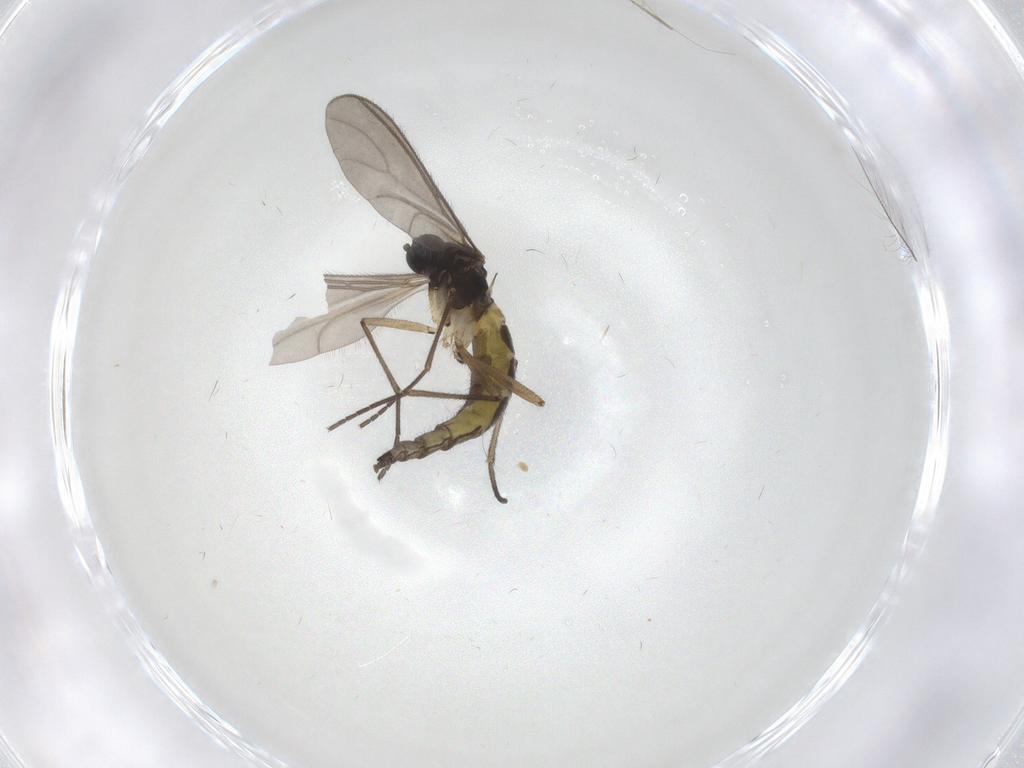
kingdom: Animalia
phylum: Arthropoda
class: Insecta
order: Diptera
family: Sciaridae
